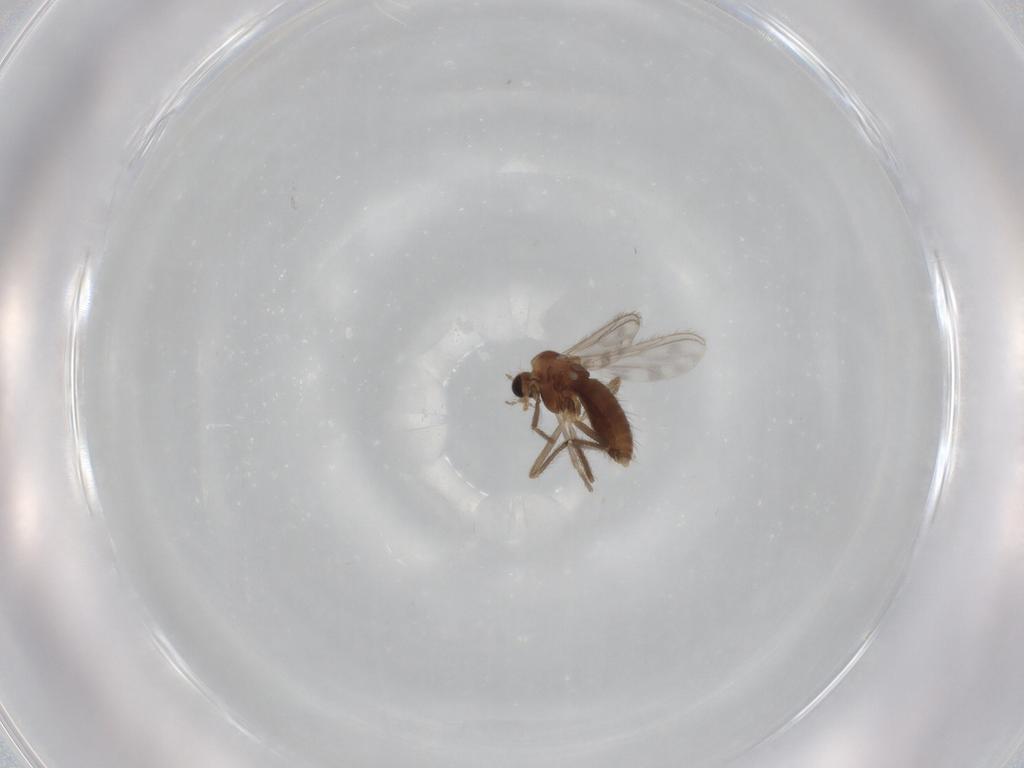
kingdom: Animalia
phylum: Arthropoda
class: Insecta
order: Diptera
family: Chironomidae
